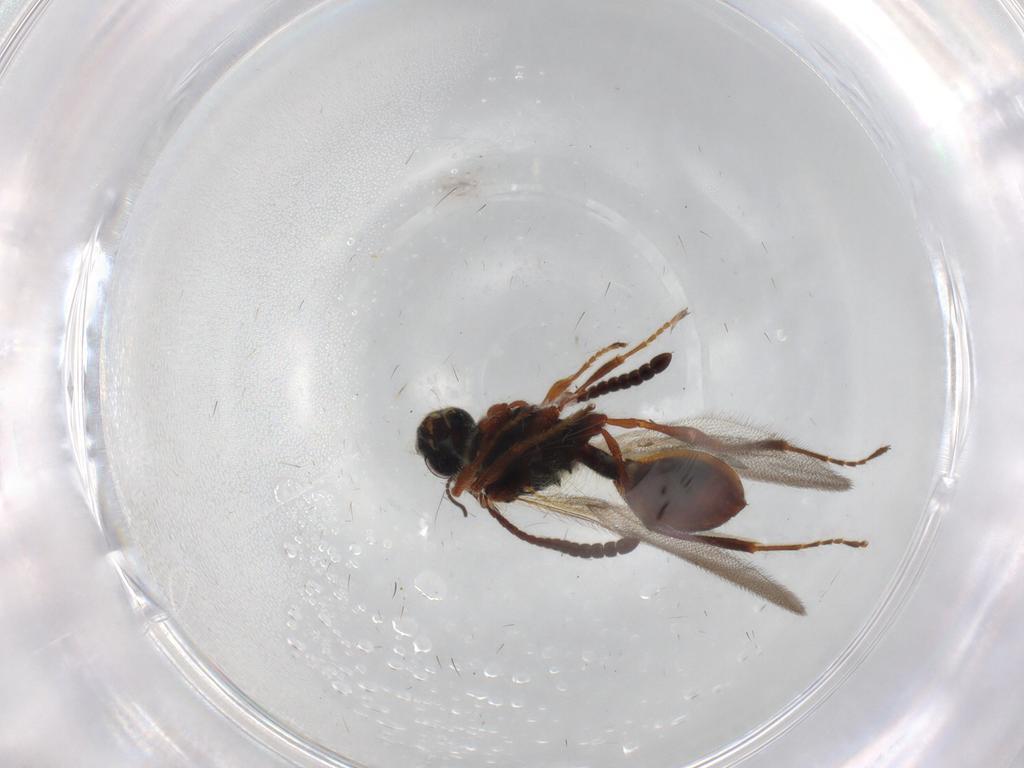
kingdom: Animalia
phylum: Arthropoda
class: Insecta
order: Hymenoptera
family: Diapriidae
